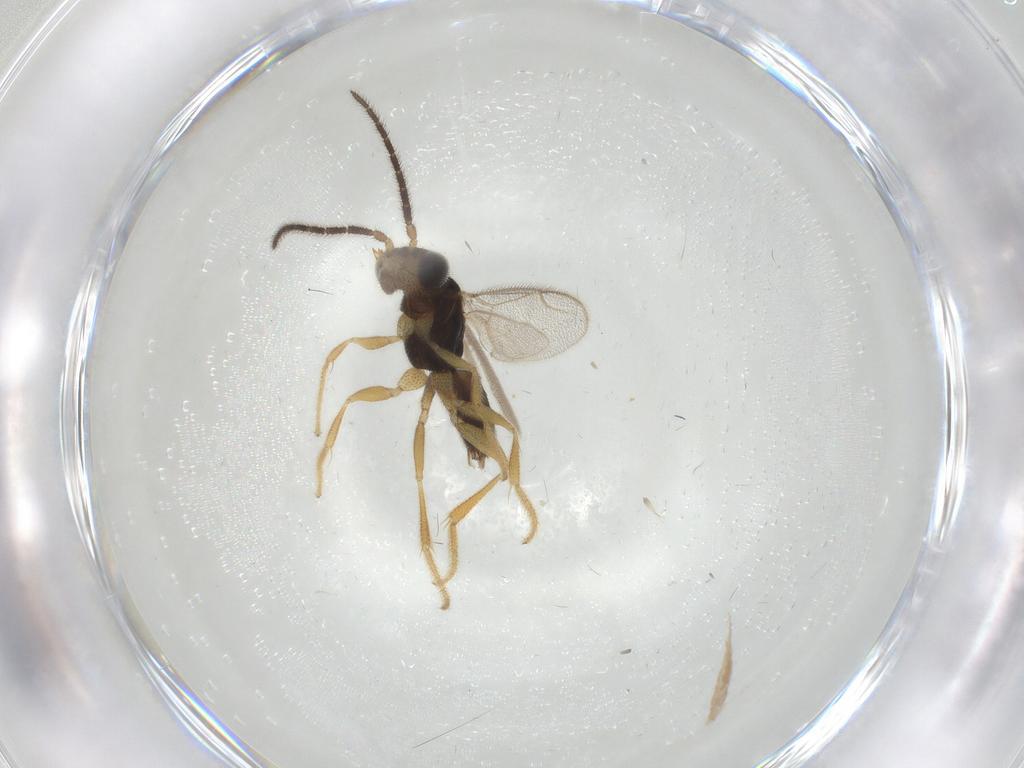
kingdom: Animalia
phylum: Arthropoda
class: Insecta
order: Hymenoptera
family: Dryinidae
